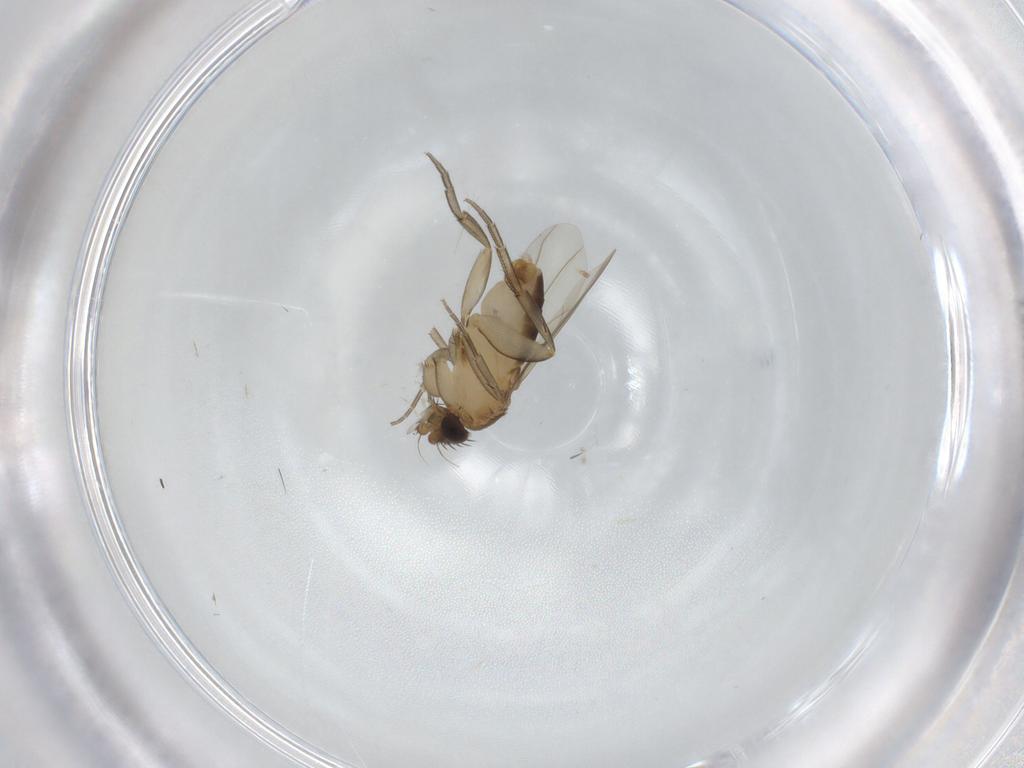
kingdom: Animalia
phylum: Arthropoda
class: Insecta
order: Diptera
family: Phoridae
